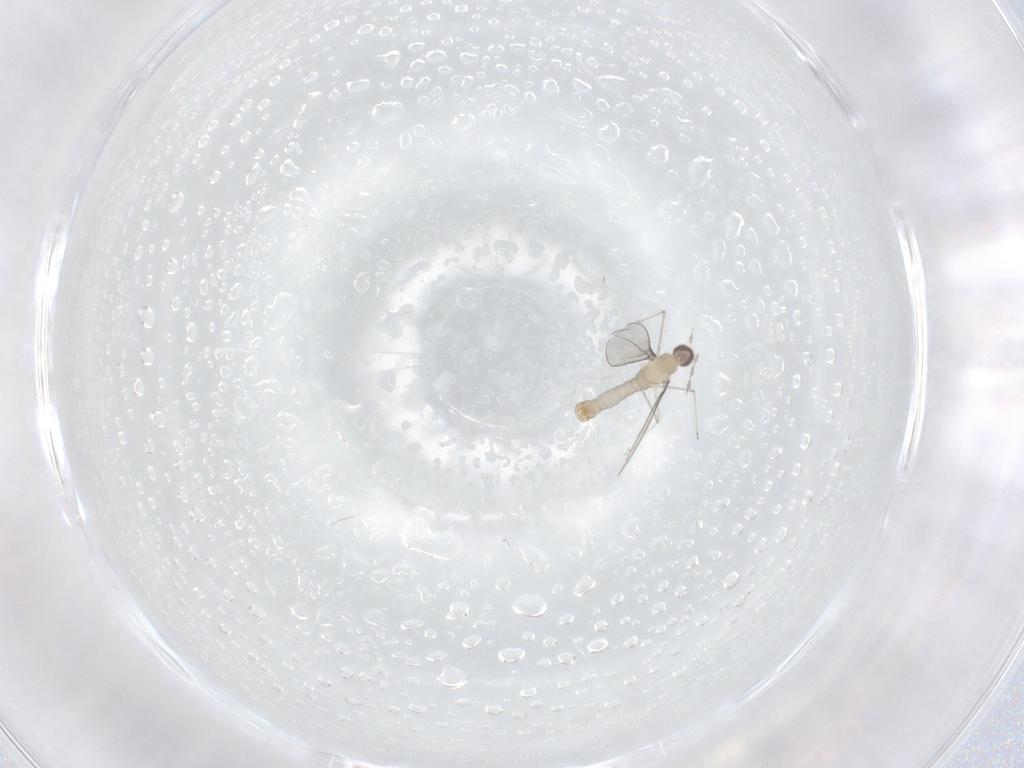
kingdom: Animalia
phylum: Arthropoda
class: Insecta
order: Diptera
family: Cecidomyiidae
